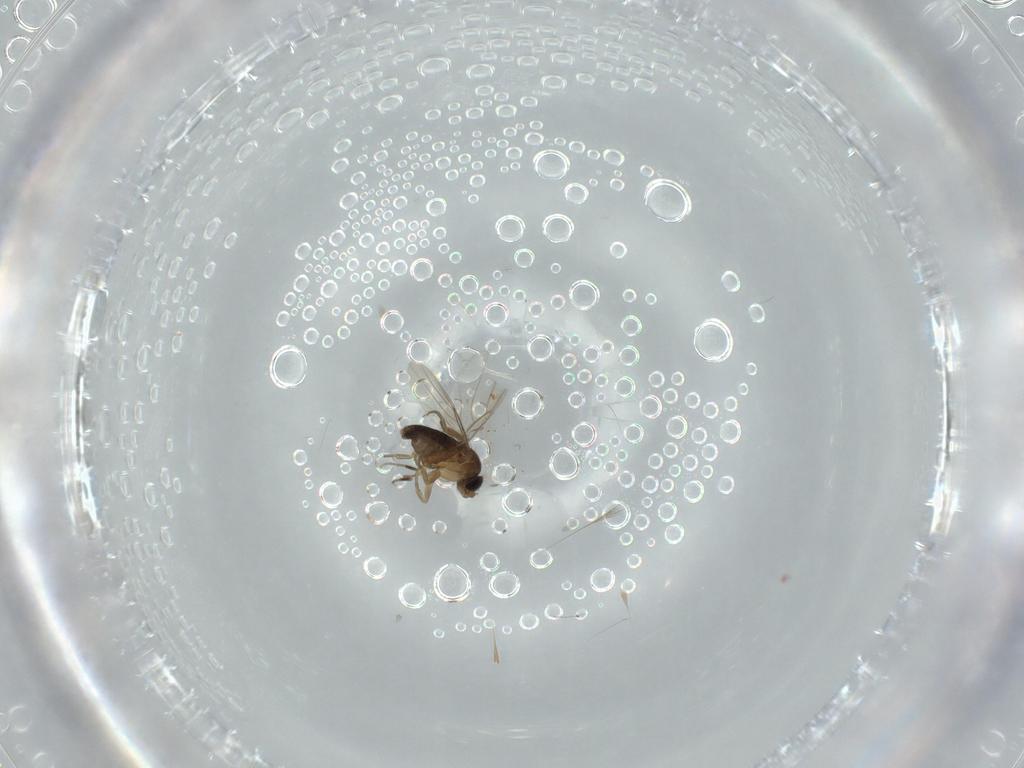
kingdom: Animalia
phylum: Arthropoda
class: Insecta
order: Diptera
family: Phoridae
